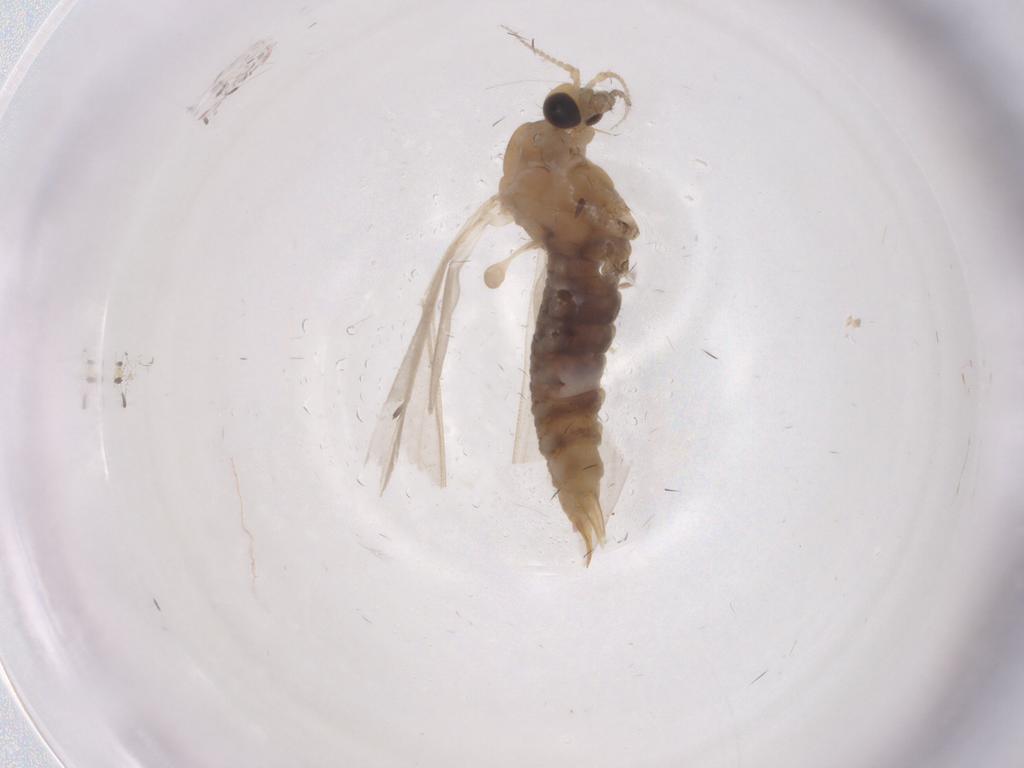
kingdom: Animalia
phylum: Arthropoda
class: Insecta
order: Diptera
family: Limoniidae
